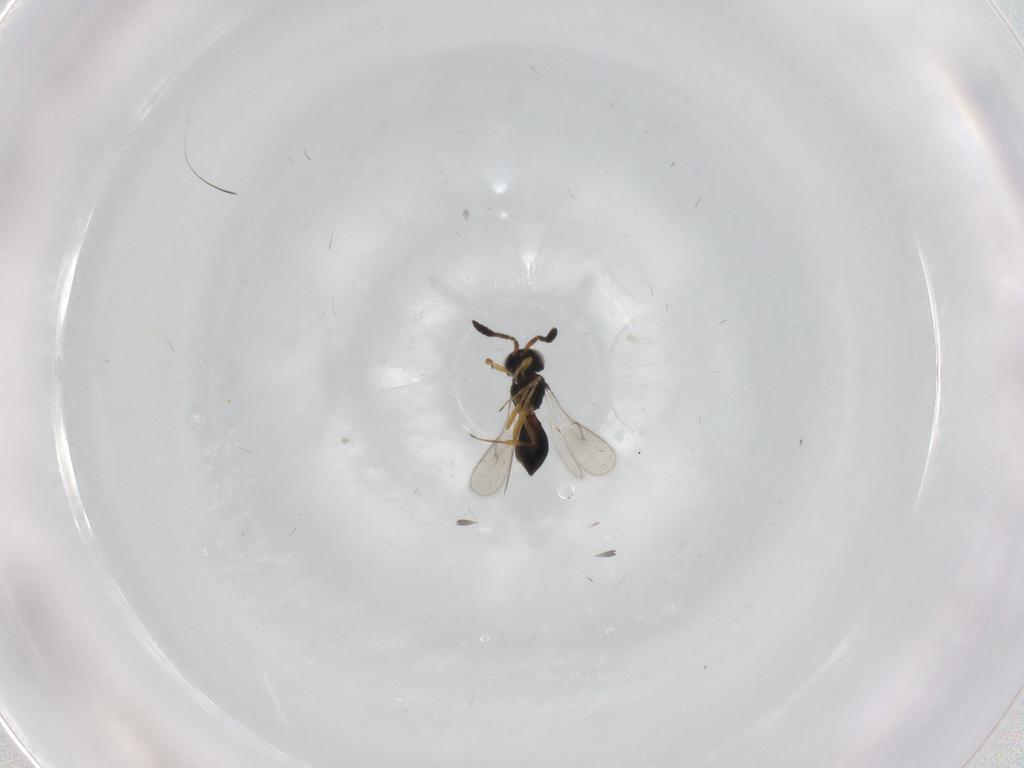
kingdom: Animalia
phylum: Arthropoda
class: Insecta
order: Hymenoptera
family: Scelionidae
